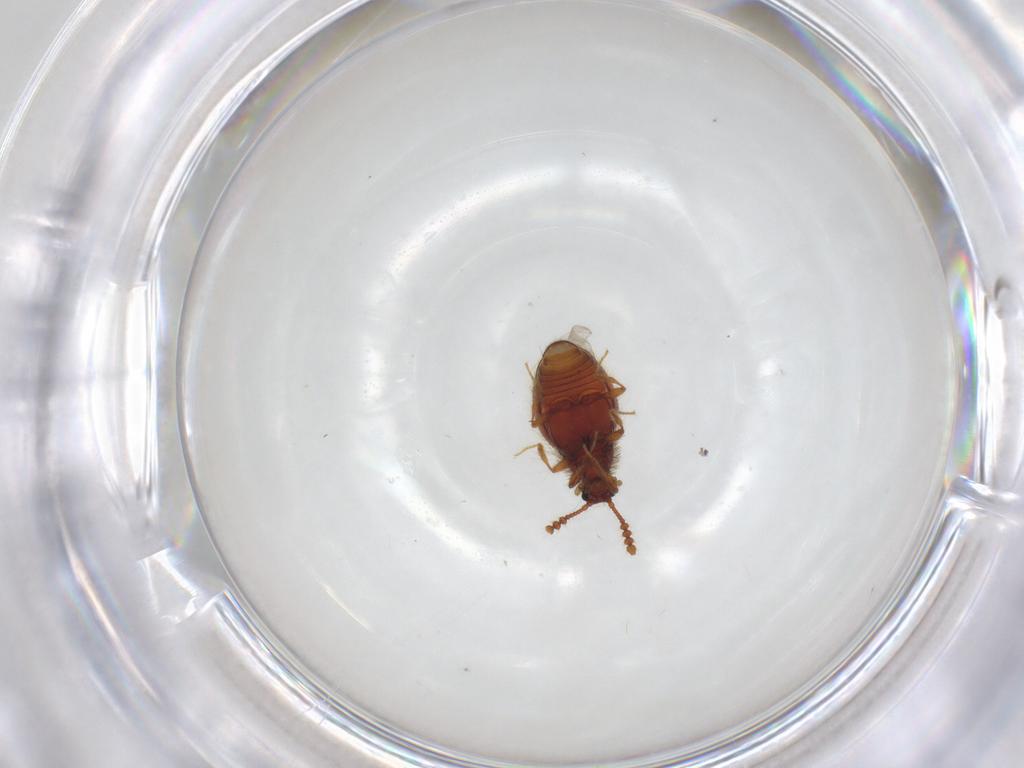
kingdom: Animalia
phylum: Arthropoda
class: Insecta
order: Coleoptera
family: Staphylinidae
